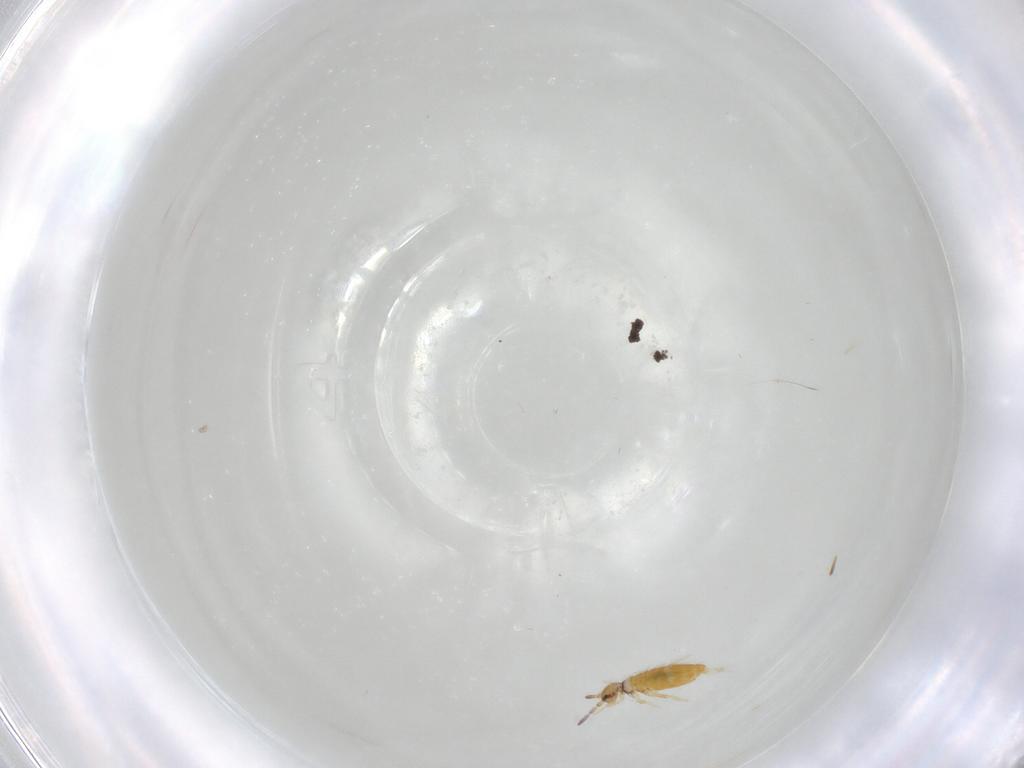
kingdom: Animalia
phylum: Arthropoda
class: Collembola
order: Entomobryomorpha
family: Entomobryidae
